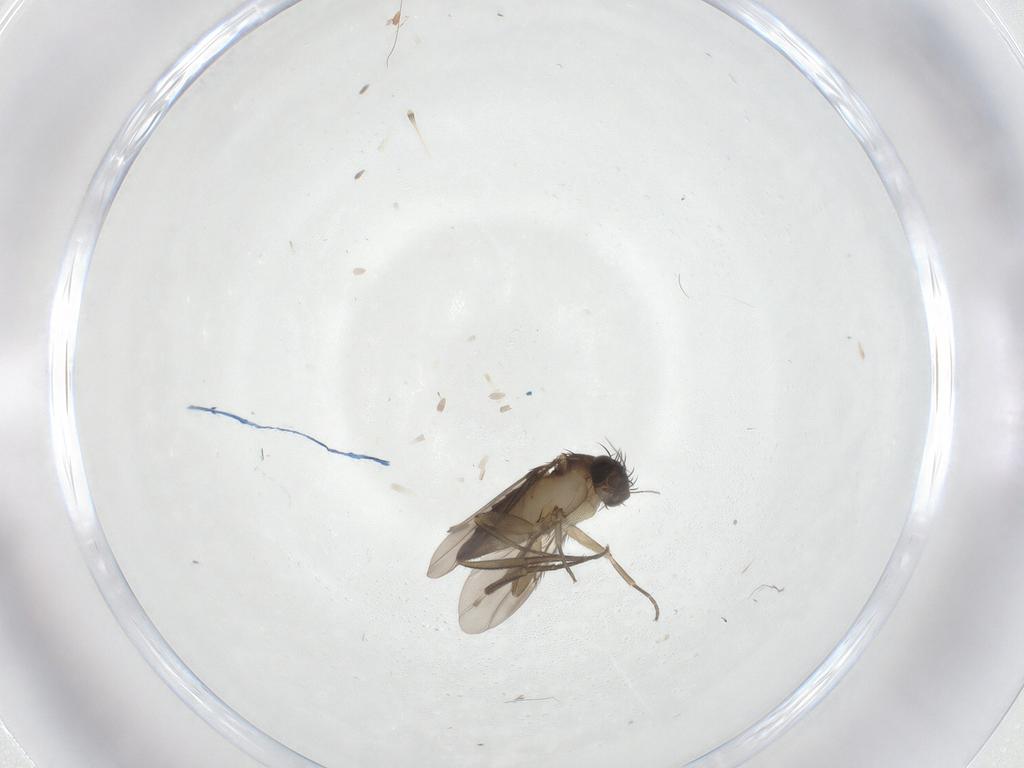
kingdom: Animalia
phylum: Arthropoda
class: Insecta
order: Diptera
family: Phoridae
